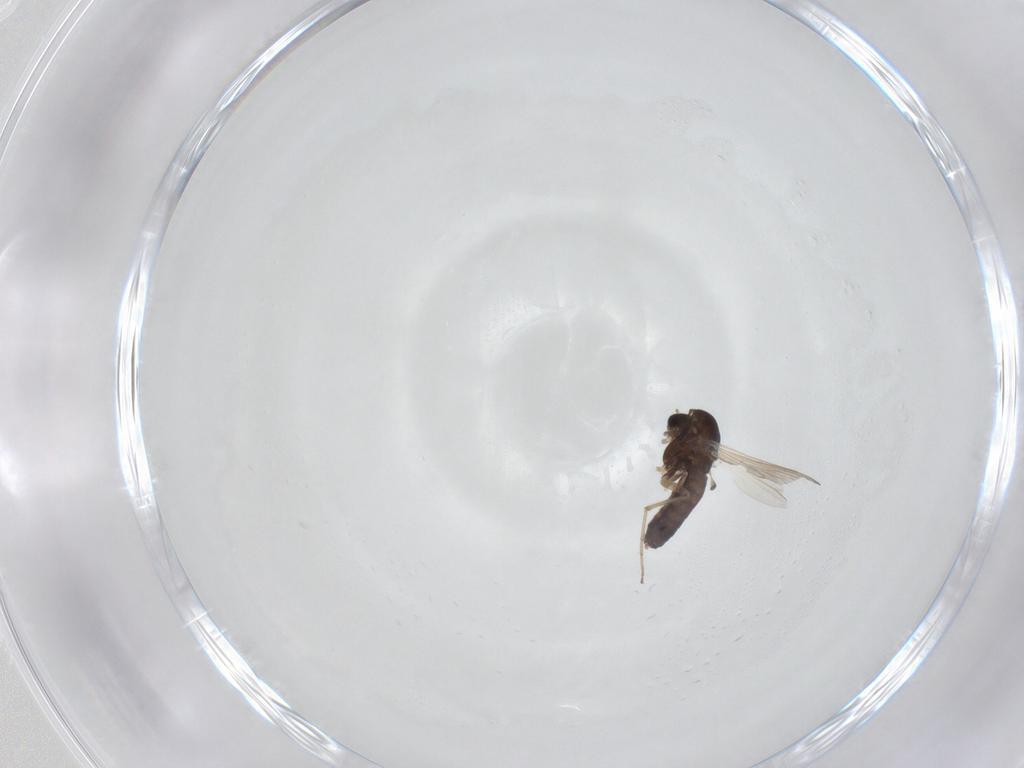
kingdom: Animalia
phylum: Arthropoda
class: Insecta
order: Diptera
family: Chironomidae
